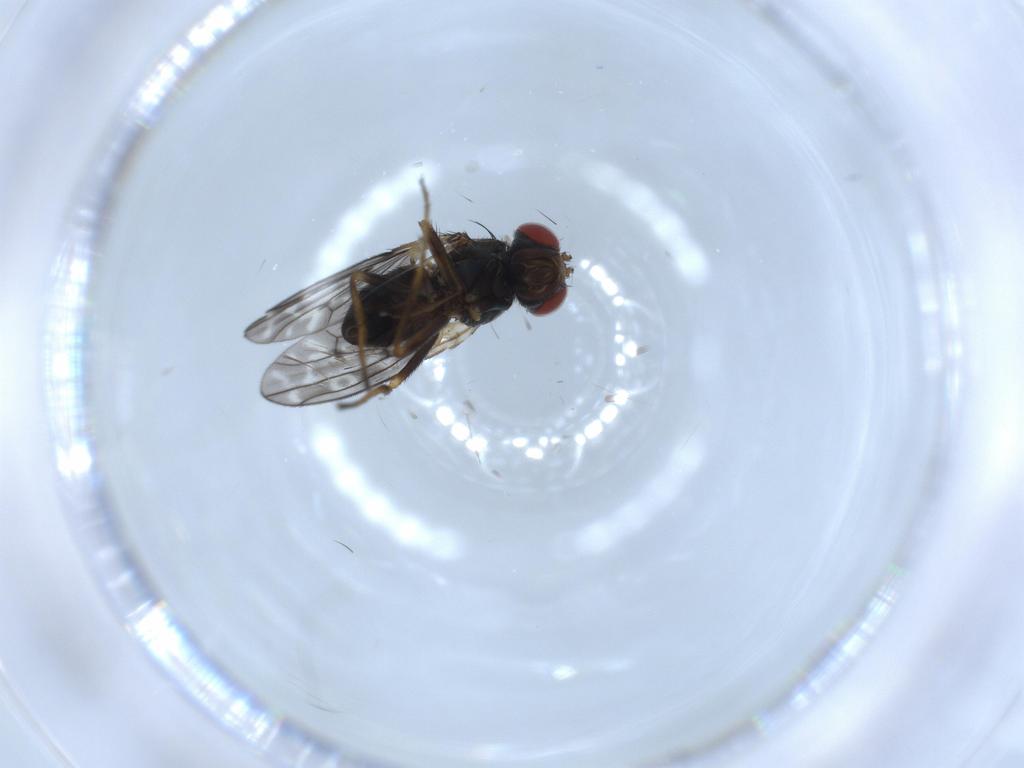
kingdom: Animalia
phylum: Arthropoda
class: Insecta
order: Diptera
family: Ephydridae
